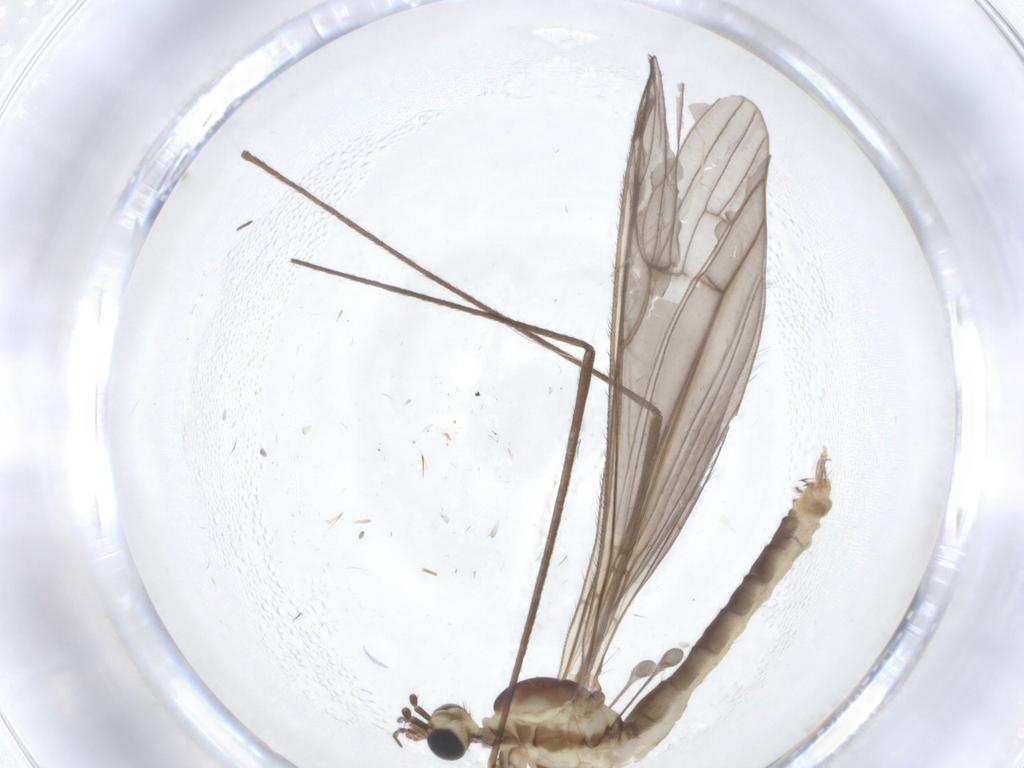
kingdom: Animalia
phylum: Arthropoda
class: Insecta
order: Diptera
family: Limoniidae
